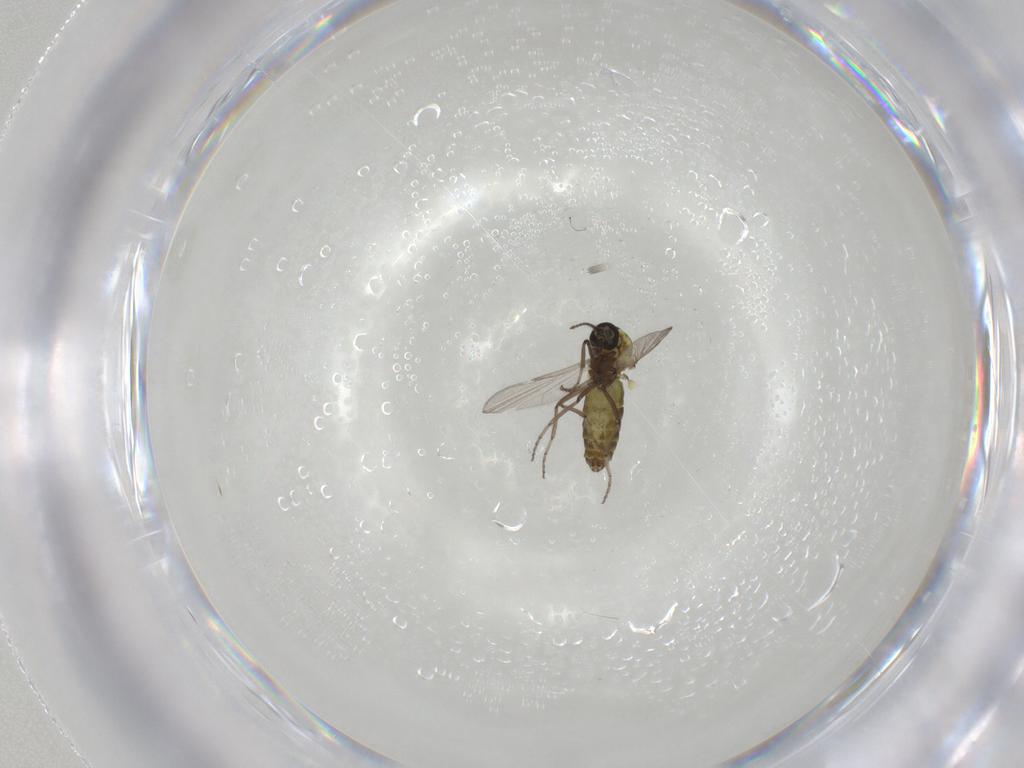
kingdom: Animalia
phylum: Arthropoda
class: Insecta
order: Diptera
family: Ceratopogonidae
